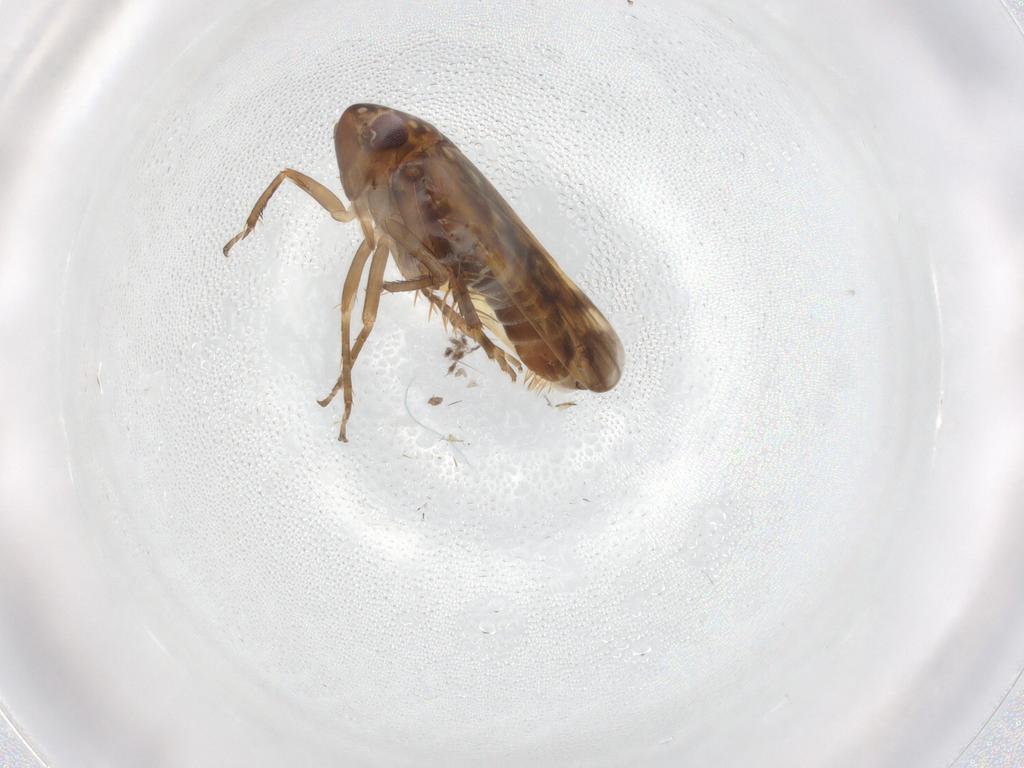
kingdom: Animalia
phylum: Arthropoda
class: Insecta
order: Hemiptera
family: Cicadellidae
